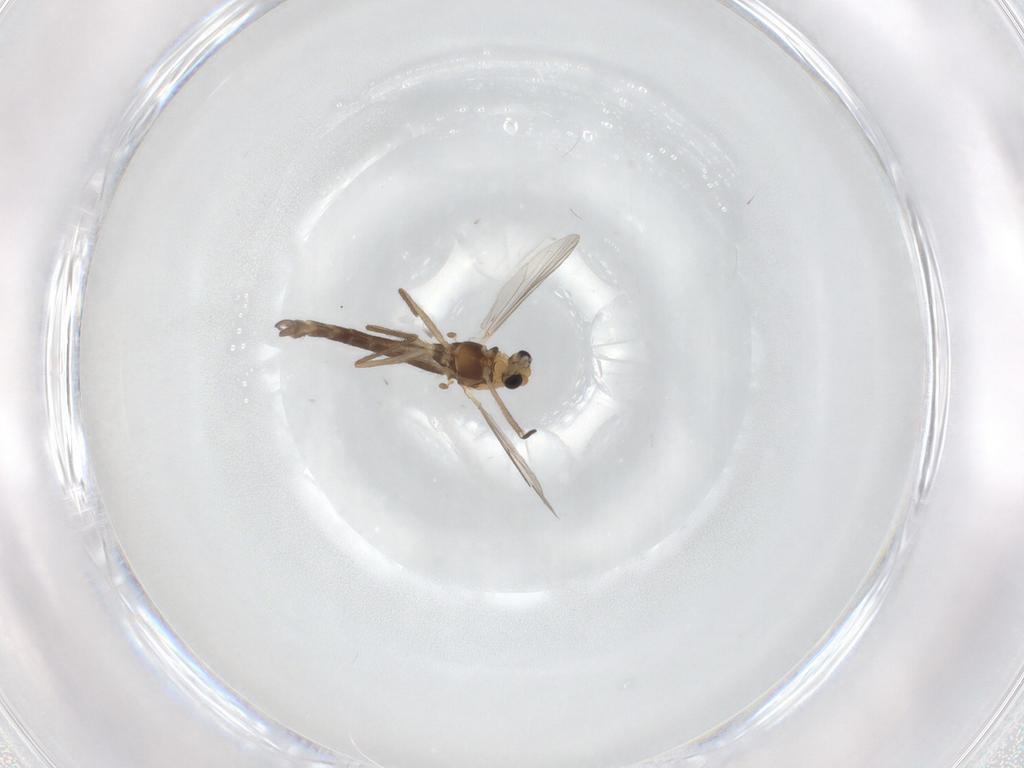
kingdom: Animalia
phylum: Arthropoda
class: Insecta
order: Diptera
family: Chironomidae
